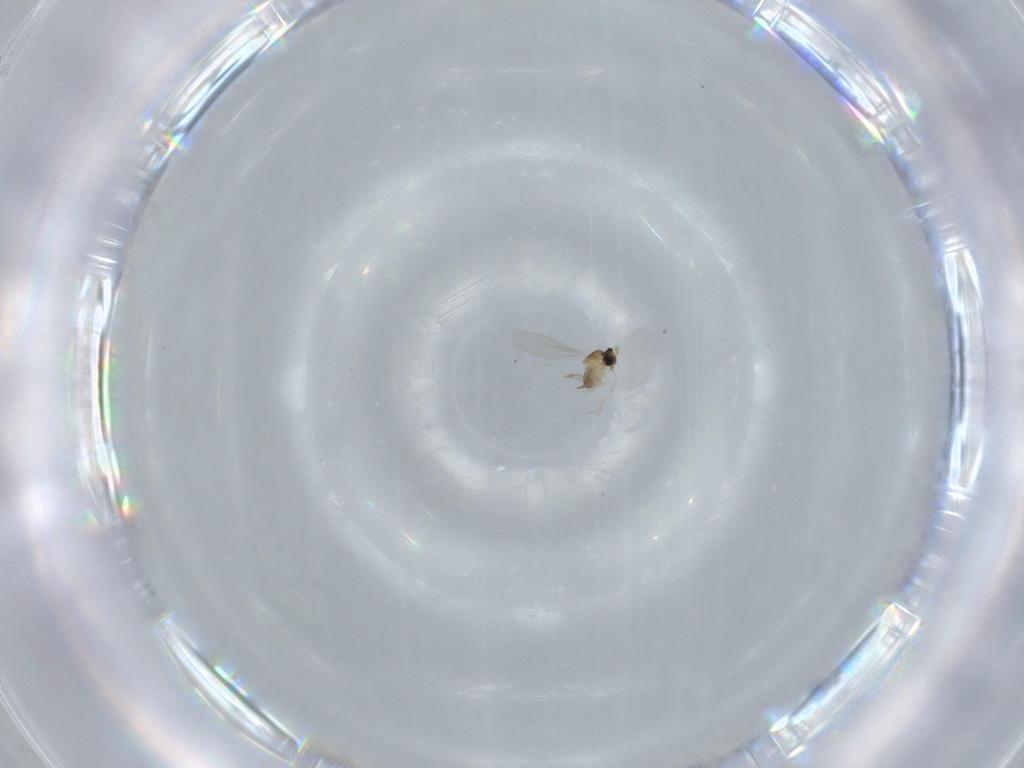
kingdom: Animalia
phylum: Arthropoda
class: Insecta
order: Diptera
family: Cecidomyiidae
